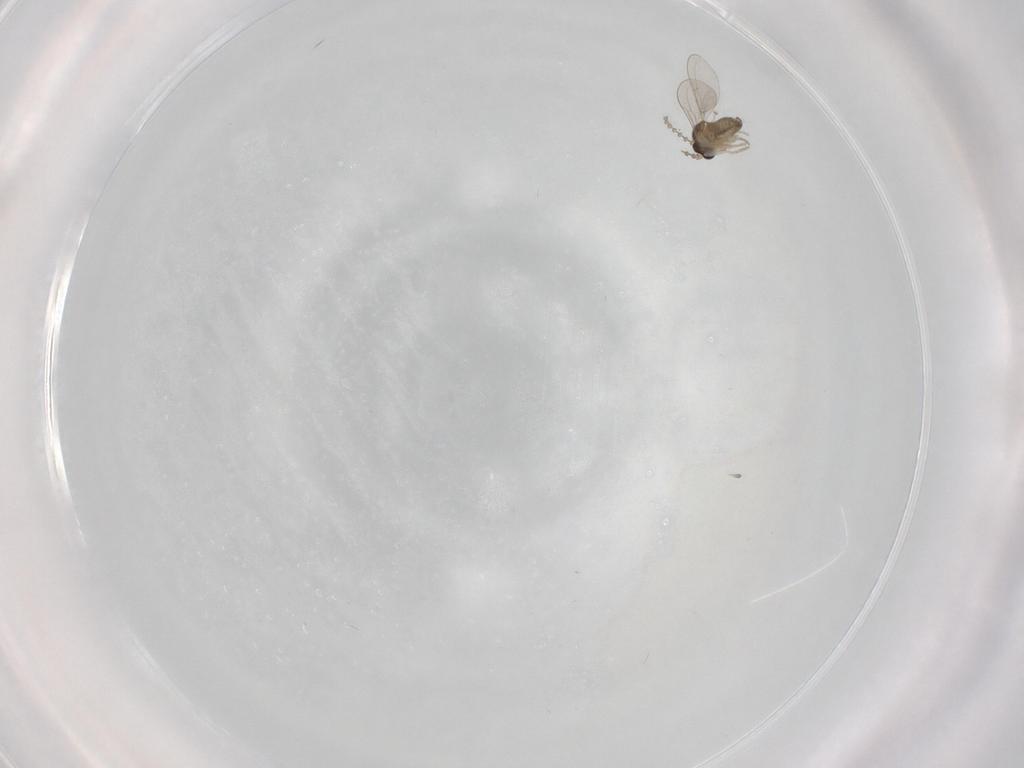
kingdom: Animalia
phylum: Arthropoda
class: Insecta
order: Diptera
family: Cecidomyiidae
